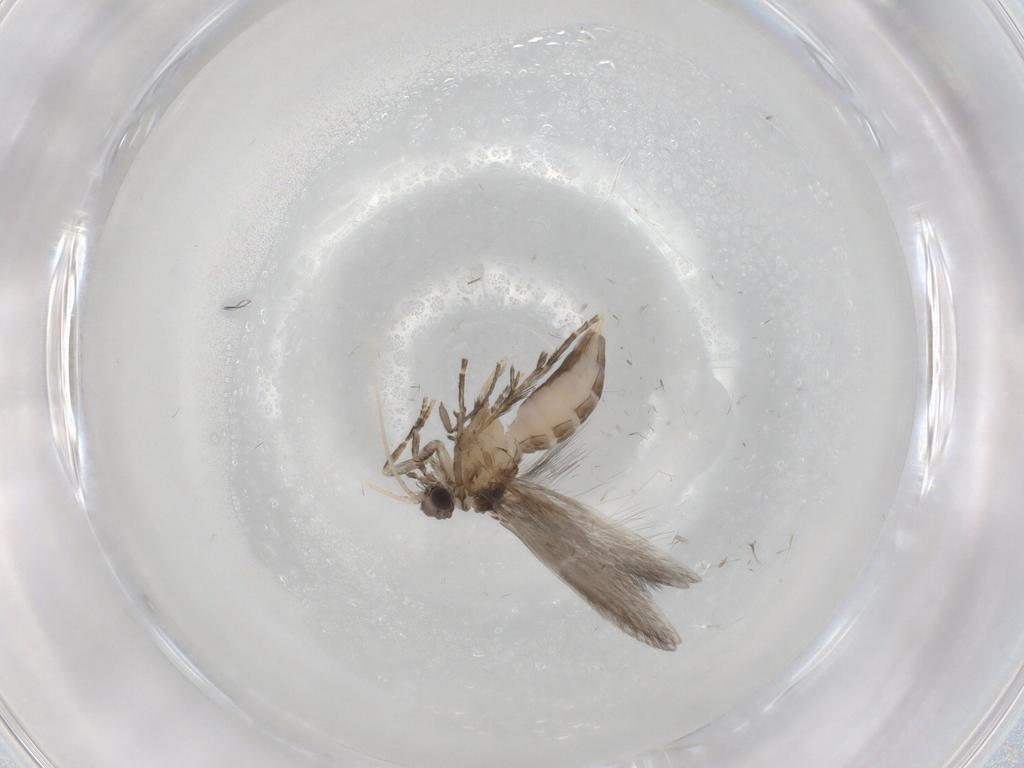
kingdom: Animalia
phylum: Arthropoda
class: Insecta
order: Trichoptera
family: Hydroptilidae
